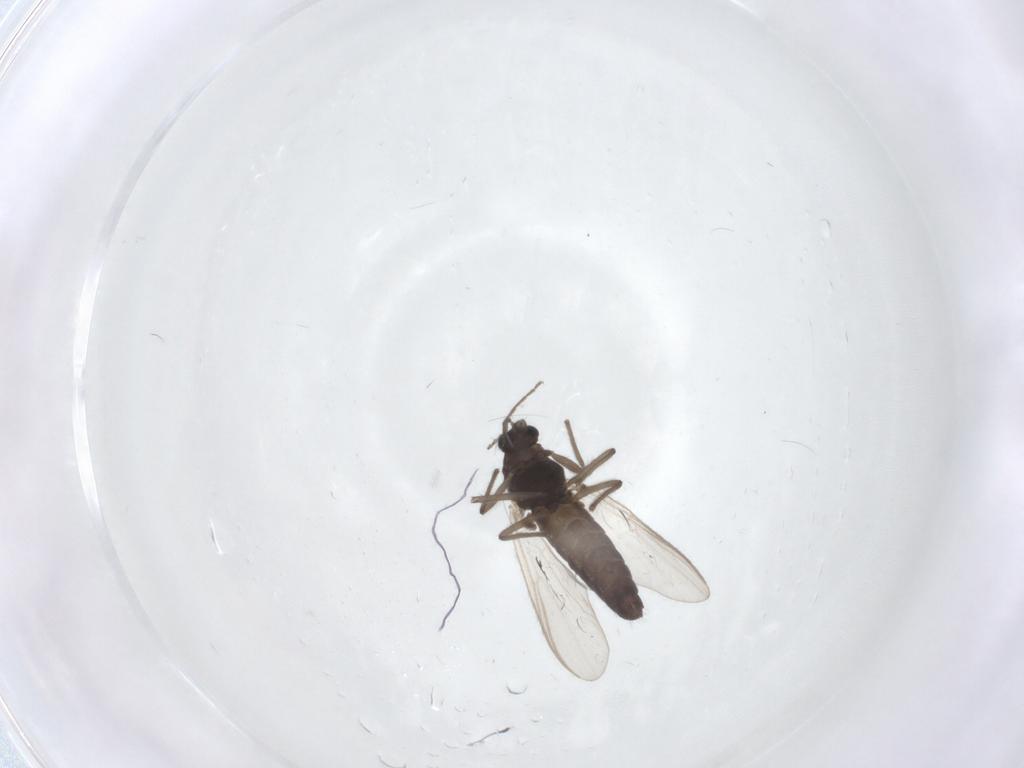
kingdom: Animalia
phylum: Arthropoda
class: Insecta
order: Diptera
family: Chironomidae
